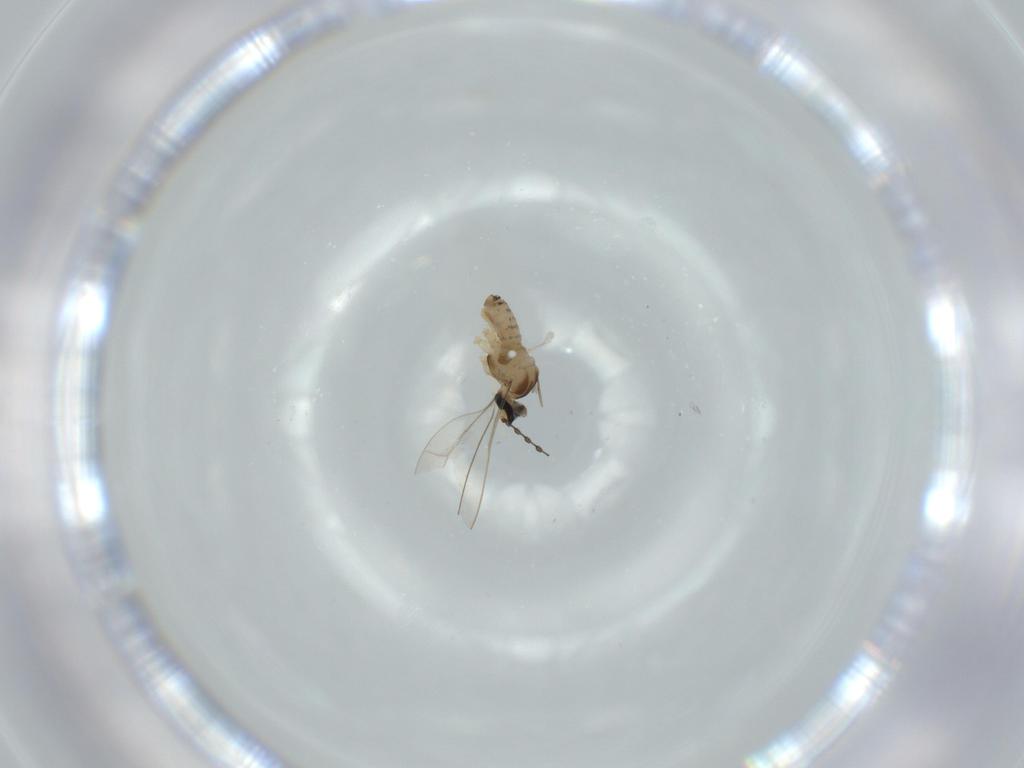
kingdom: Animalia
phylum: Arthropoda
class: Insecta
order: Diptera
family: Cecidomyiidae
